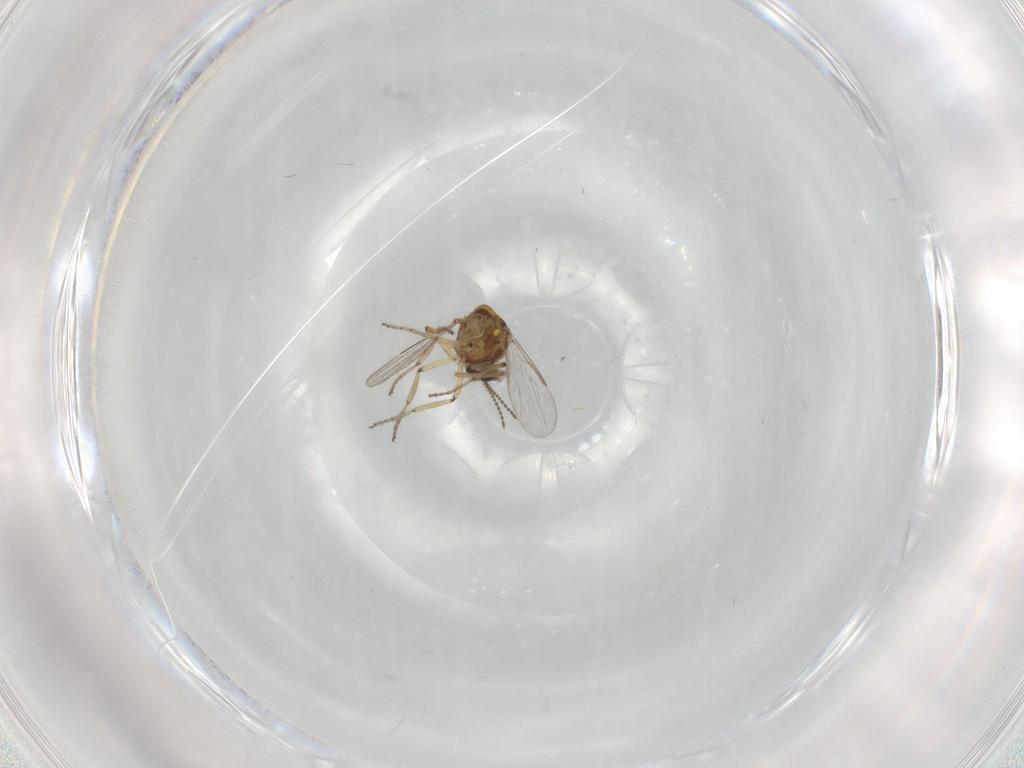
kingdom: Animalia
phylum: Arthropoda
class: Insecta
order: Diptera
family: Ceratopogonidae
